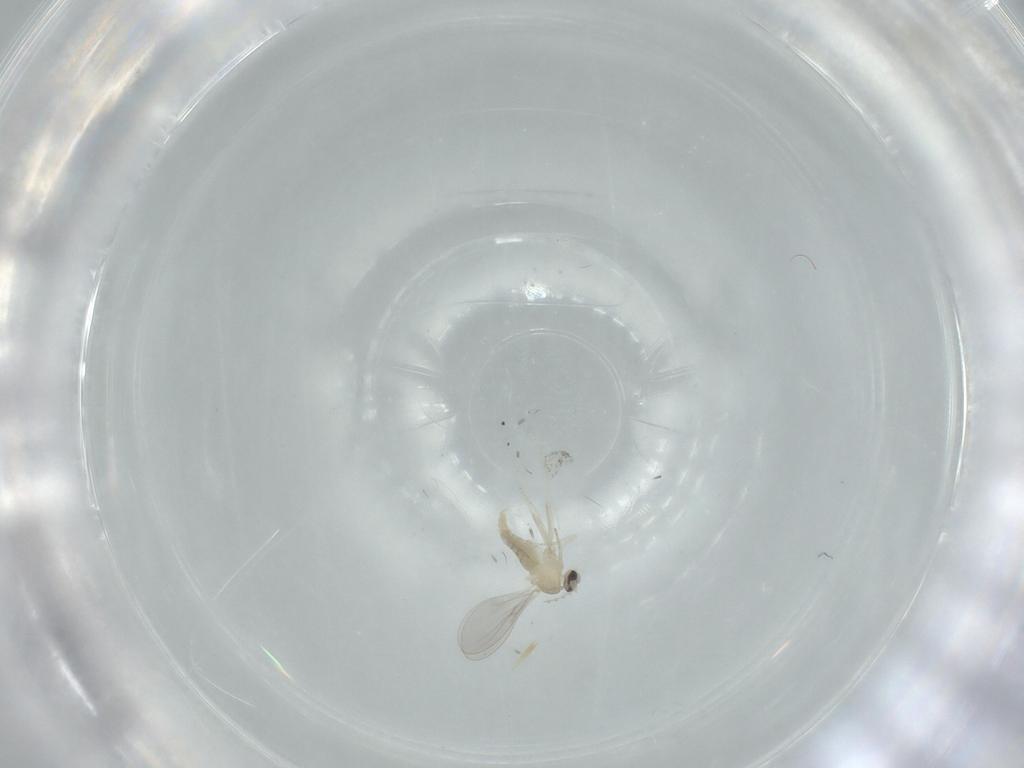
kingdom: Animalia
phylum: Arthropoda
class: Insecta
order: Diptera
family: Cecidomyiidae
